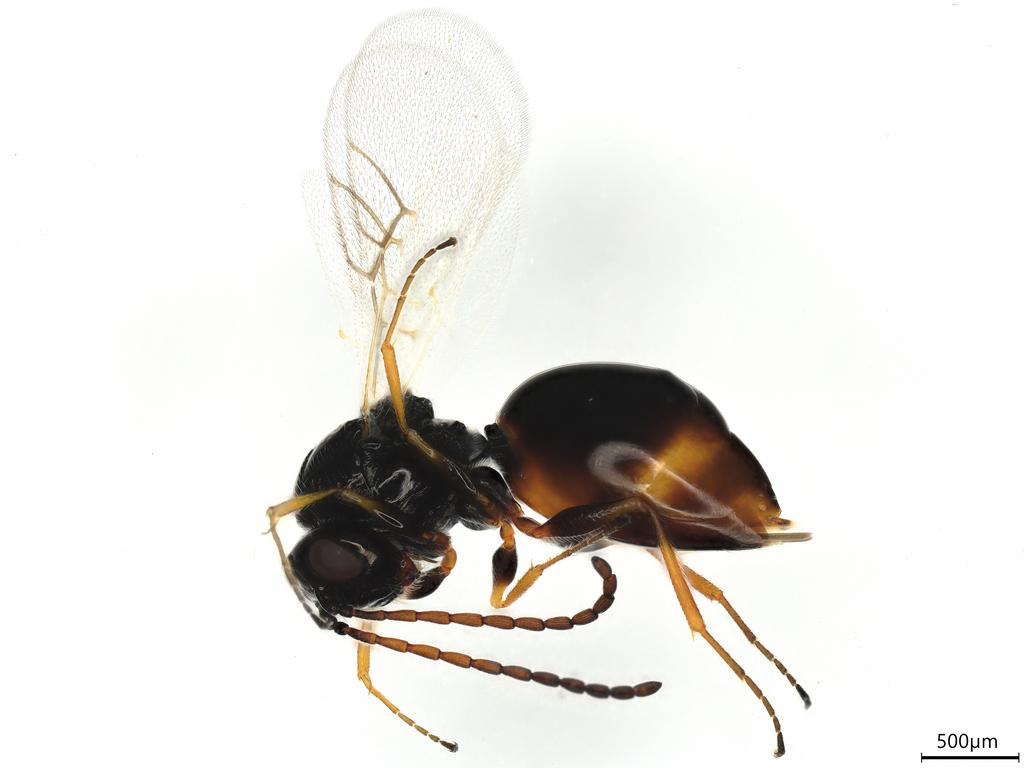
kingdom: Animalia
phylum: Arthropoda
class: Insecta
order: Hymenoptera
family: Figitidae
